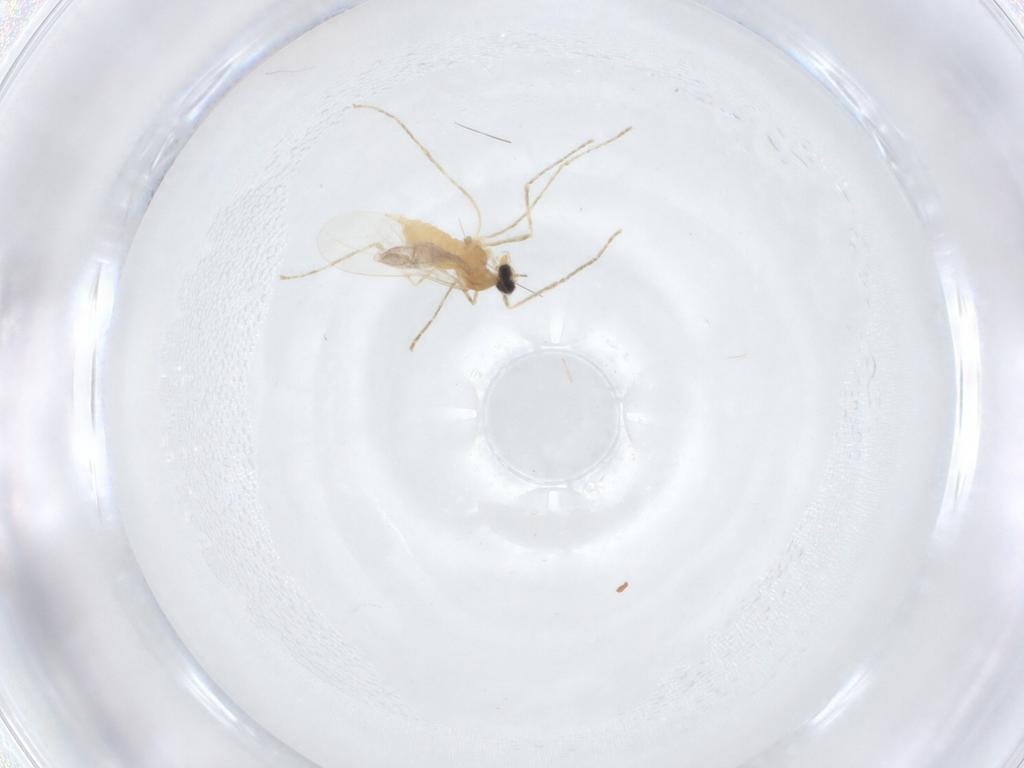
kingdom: Animalia
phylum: Arthropoda
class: Insecta
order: Diptera
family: Cecidomyiidae
